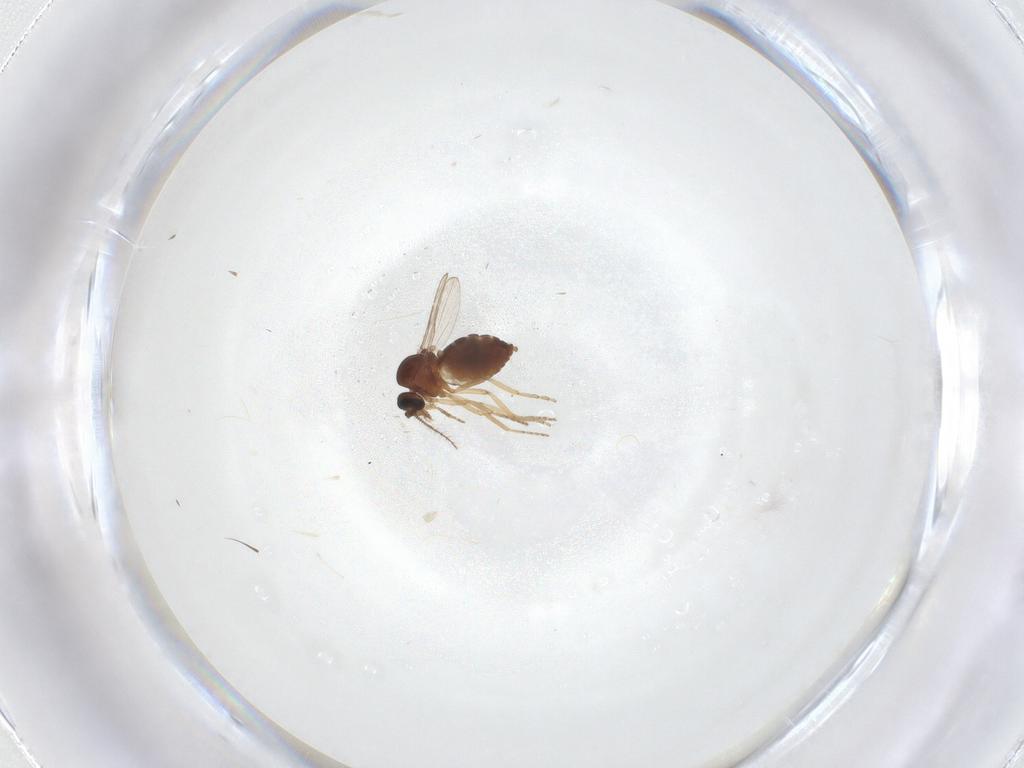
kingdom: Animalia
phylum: Arthropoda
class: Insecta
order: Diptera
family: Ceratopogonidae
